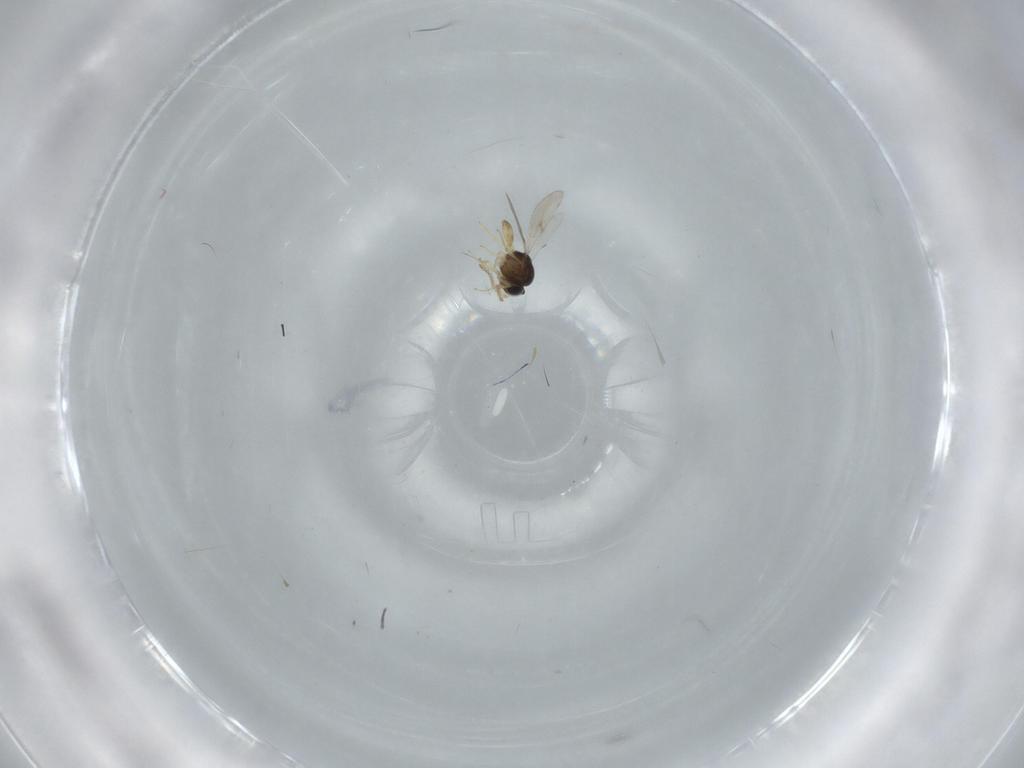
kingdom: Animalia
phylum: Arthropoda
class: Insecta
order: Hymenoptera
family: Scelionidae
